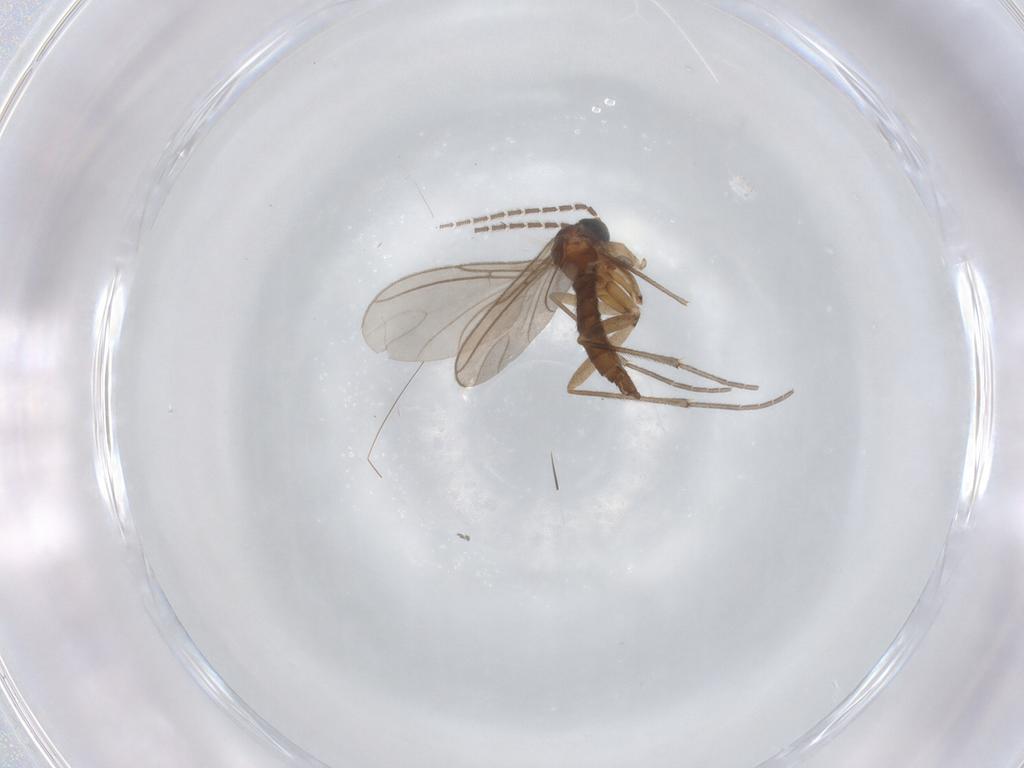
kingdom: Animalia
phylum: Arthropoda
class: Insecta
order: Diptera
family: Sciaridae
